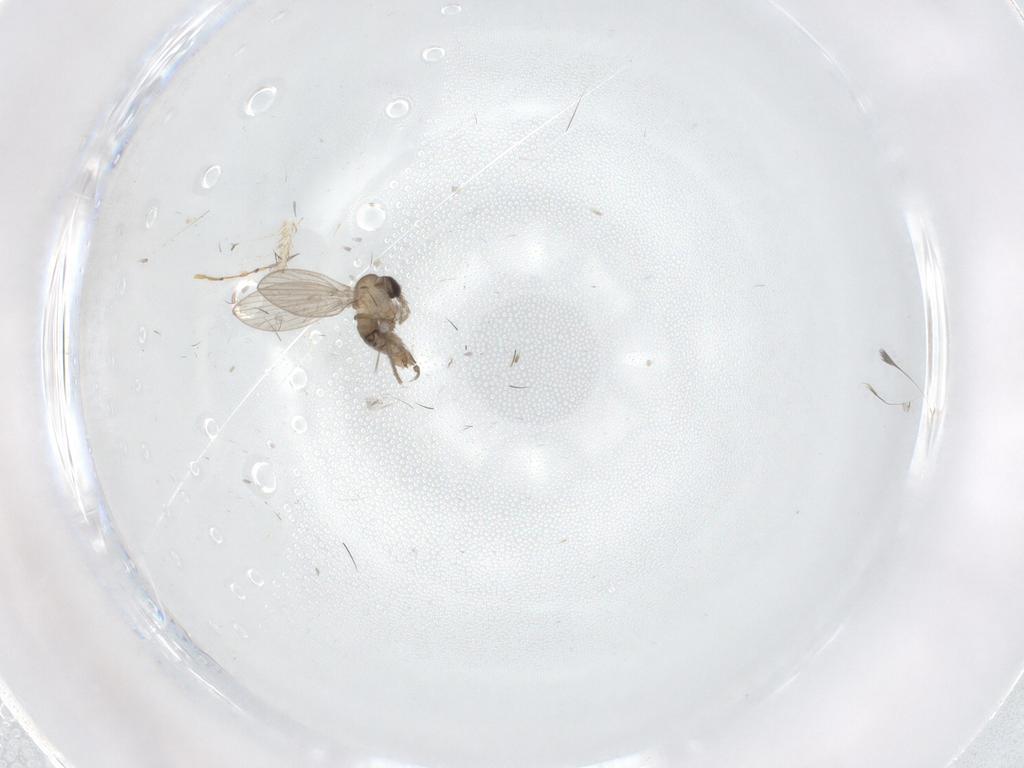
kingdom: Animalia
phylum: Arthropoda
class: Insecta
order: Diptera
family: Psychodidae
